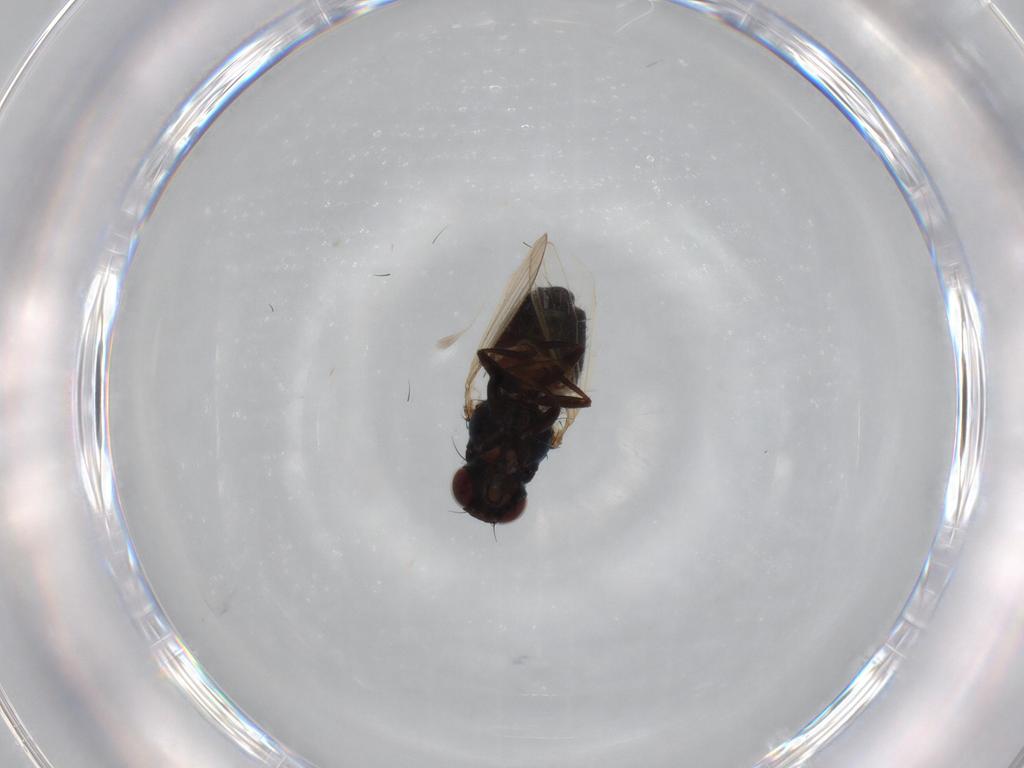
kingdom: Animalia
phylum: Arthropoda
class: Insecta
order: Diptera
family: Carnidae
